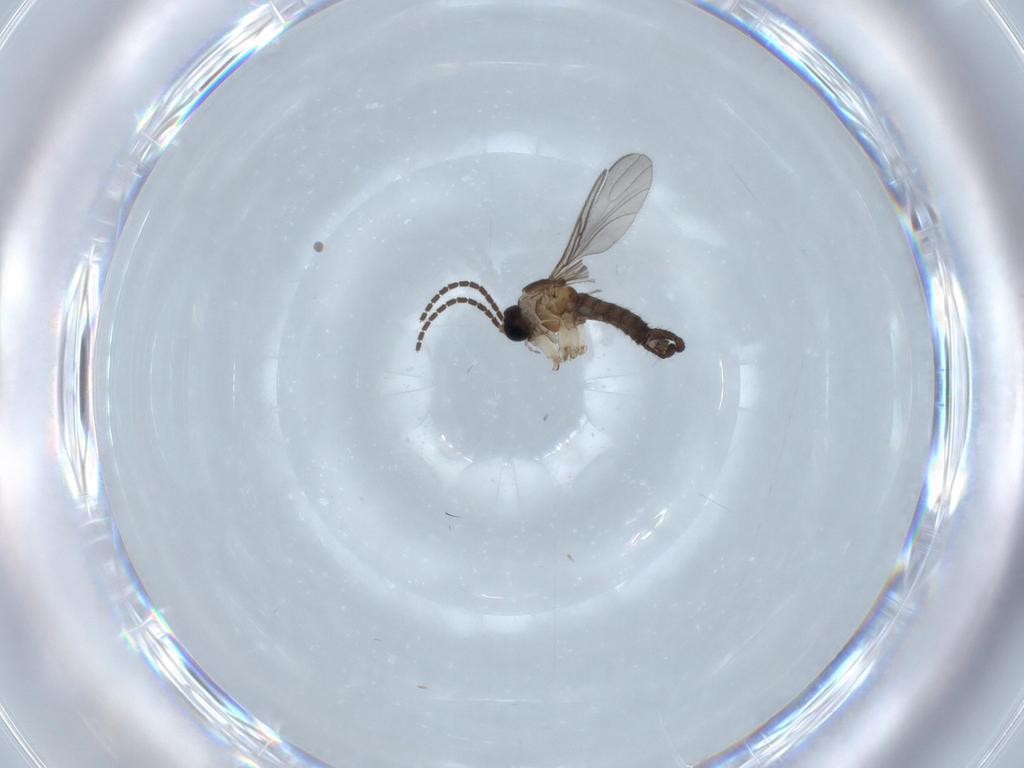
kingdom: Animalia
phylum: Arthropoda
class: Insecta
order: Diptera
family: Sciaridae
